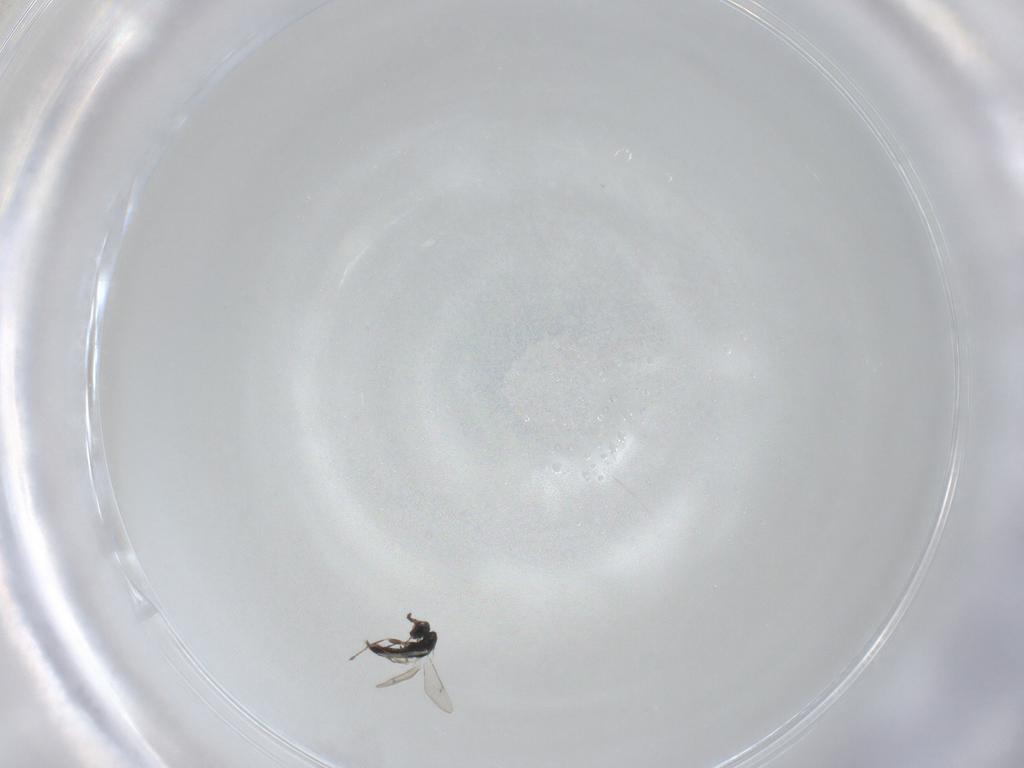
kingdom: Animalia
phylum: Arthropoda
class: Insecta
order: Hymenoptera
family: Eulophidae
